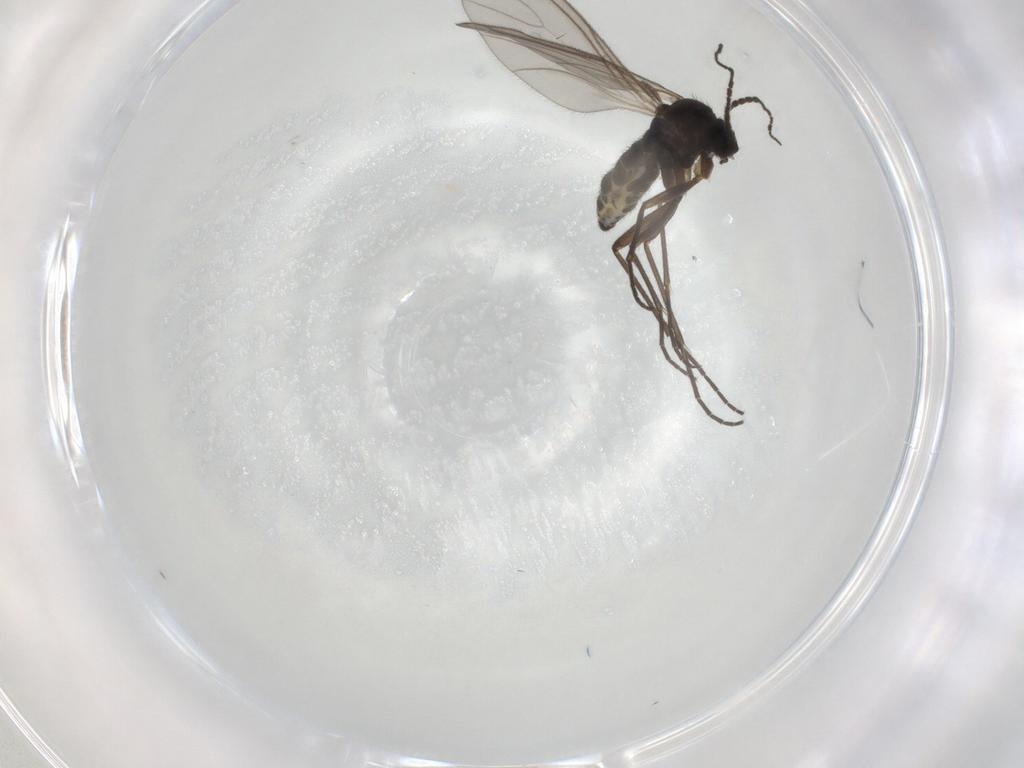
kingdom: Animalia
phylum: Arthropoda
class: Insecta
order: Diptera
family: Sciaridae
